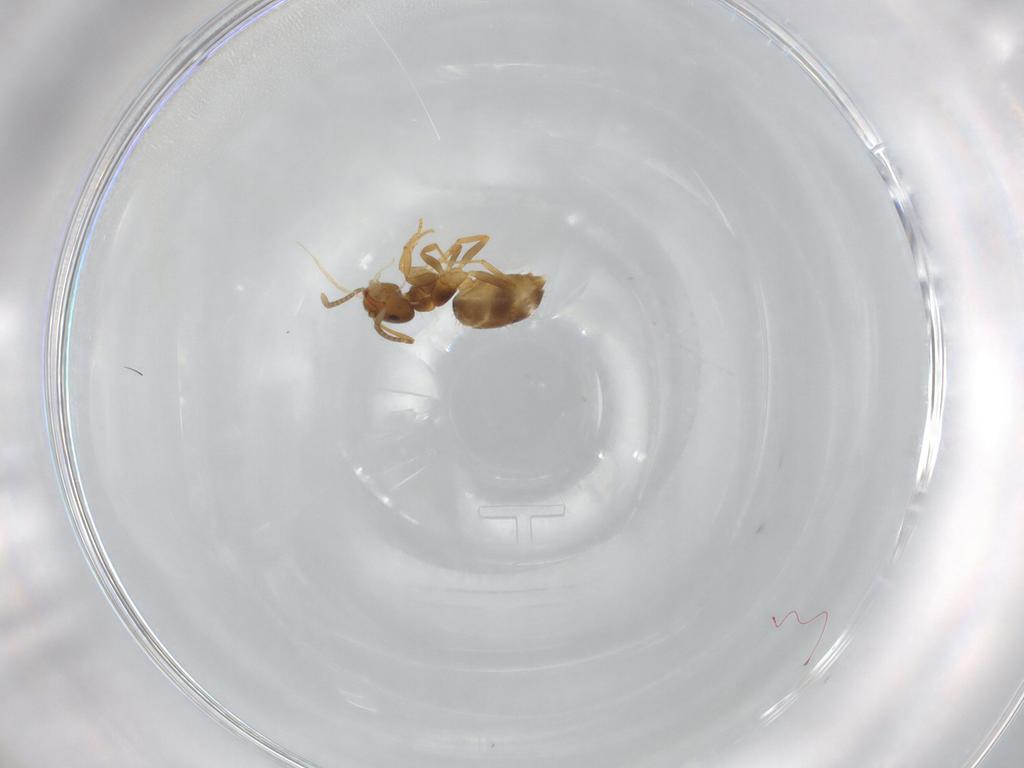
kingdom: Animalia
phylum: Arthropoda
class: Insecta
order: Hymenoptera
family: Formicidae
